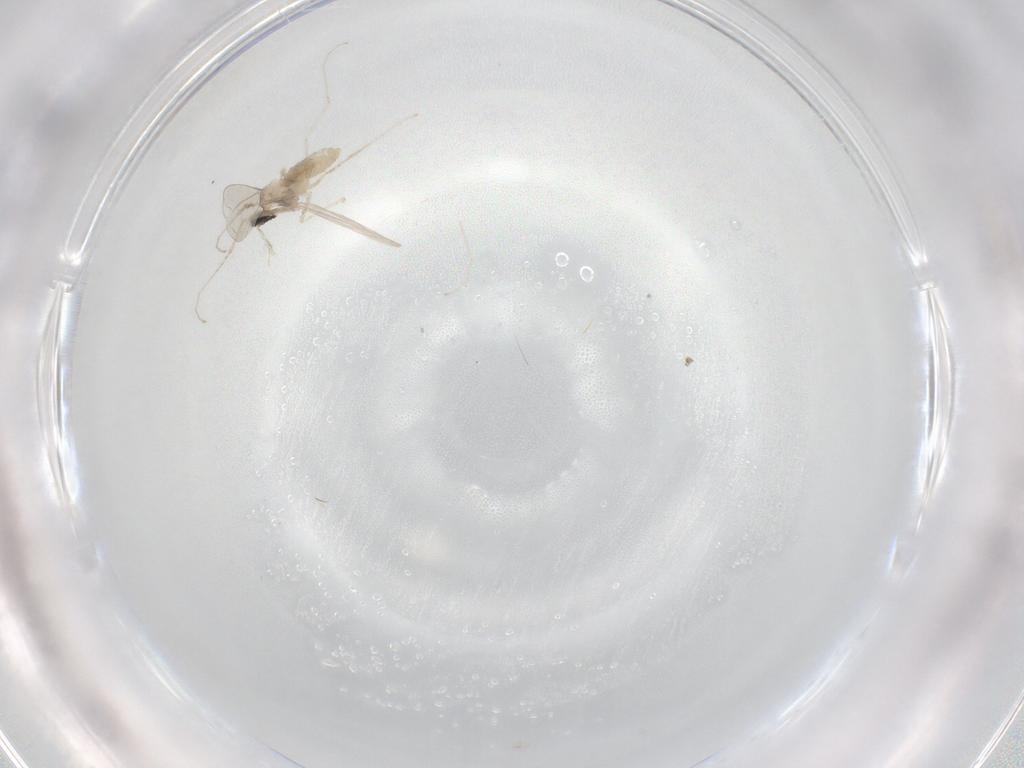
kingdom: Animalia
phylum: Arthropoda
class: Insecta
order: Diptera
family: Cecidomyiidae
